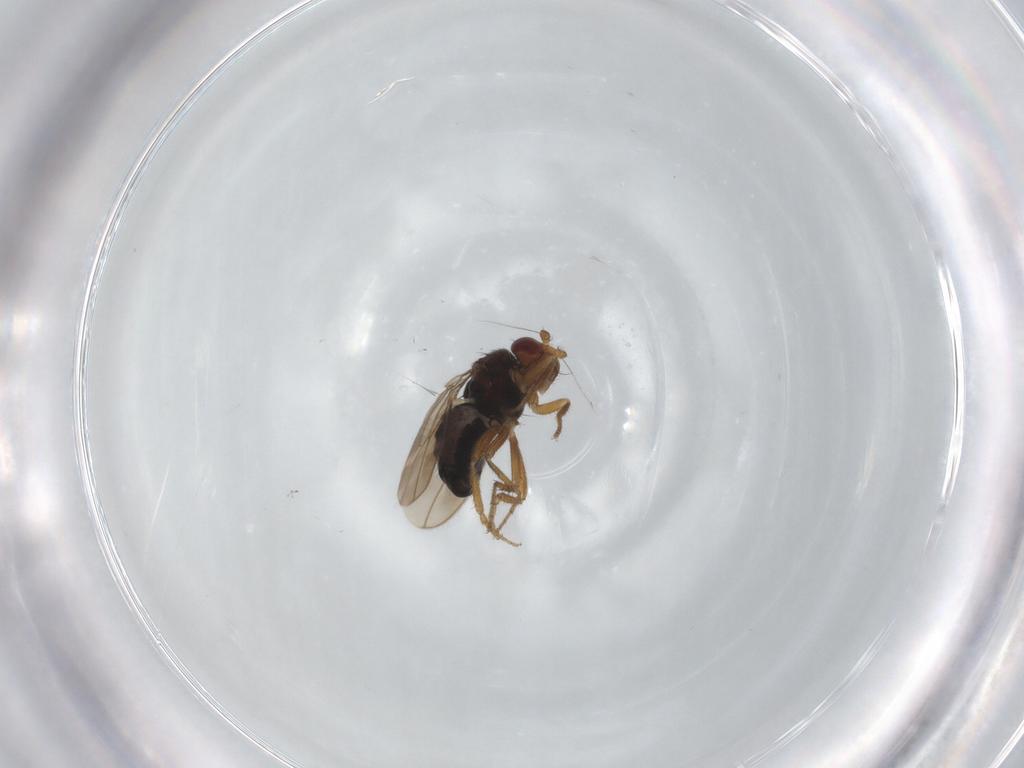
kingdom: Animalia
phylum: Arthropoda
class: Insecta
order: Diptera
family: Sphaeroceridae
